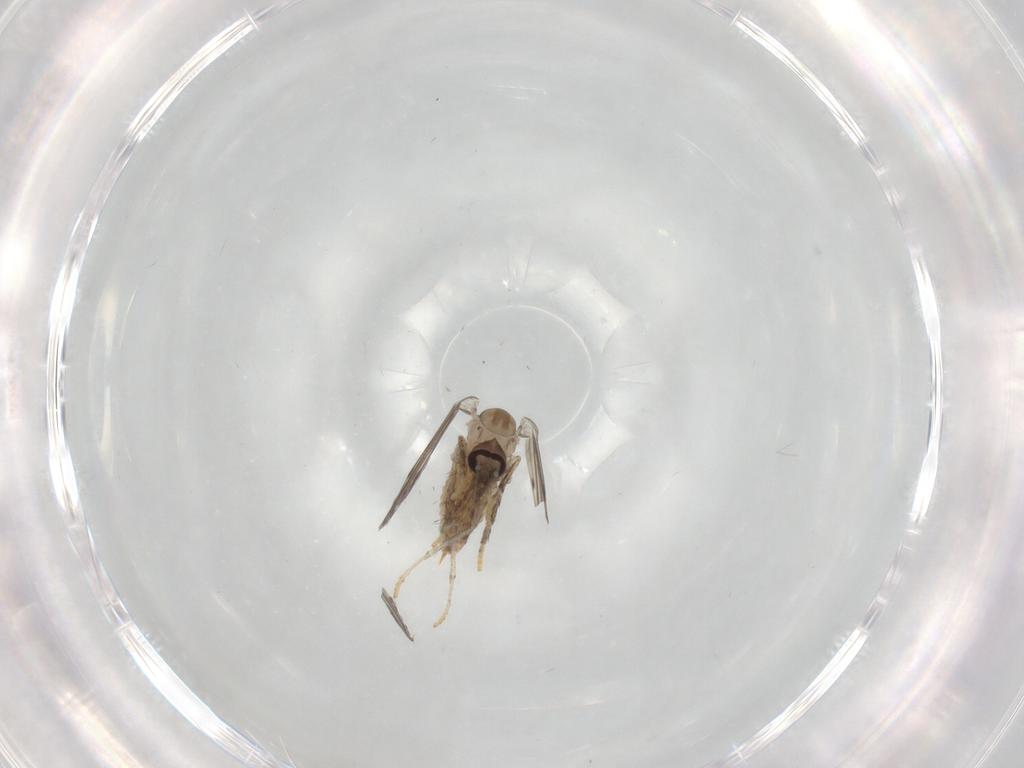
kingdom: Animalia
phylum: Arthropoda
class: Insecta
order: Diptera
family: Psychodidae
